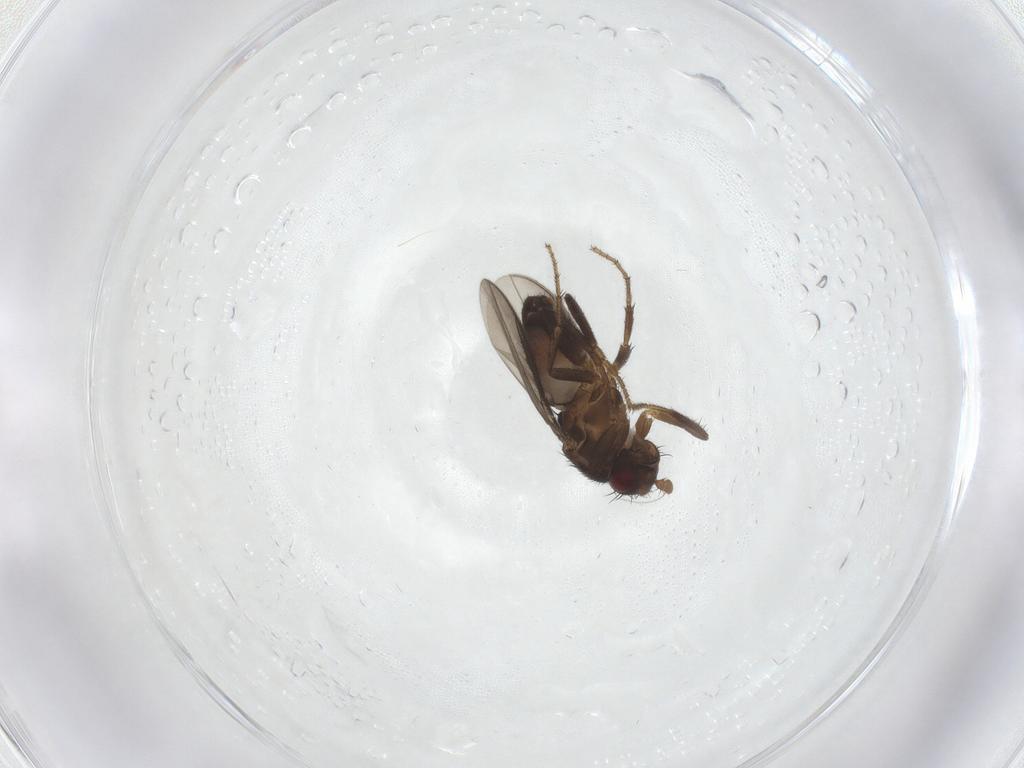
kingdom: Animalia
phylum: Arthropoda
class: Insecta
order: Diptera
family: Sphaeroceridae
